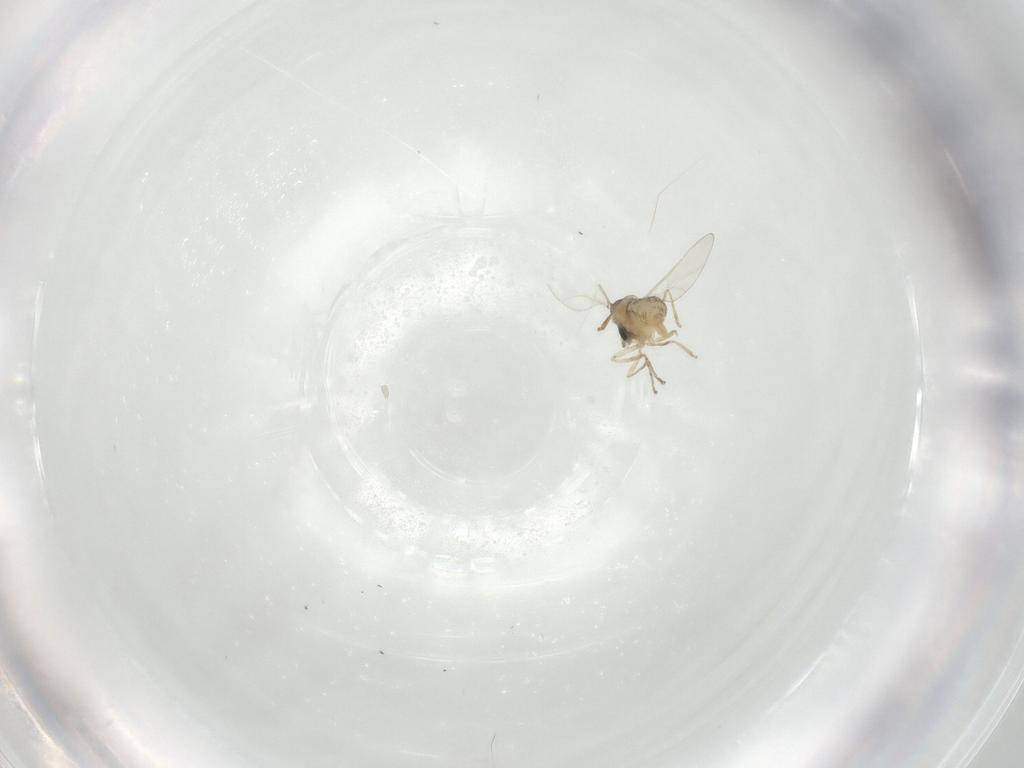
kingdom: Animalia
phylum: Arthropoda
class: Insecta
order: Diptera
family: Cecidomyiidae
